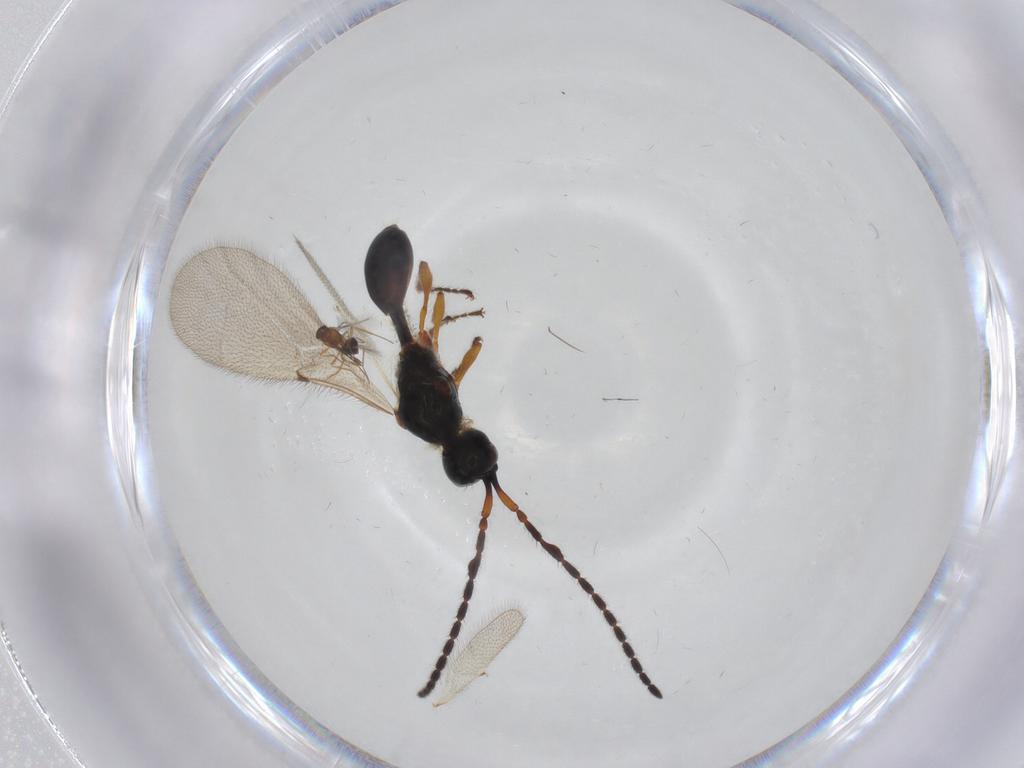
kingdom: Animalia
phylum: Arthropoda
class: Insecta
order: Hymenoptera
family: Diapriidae
